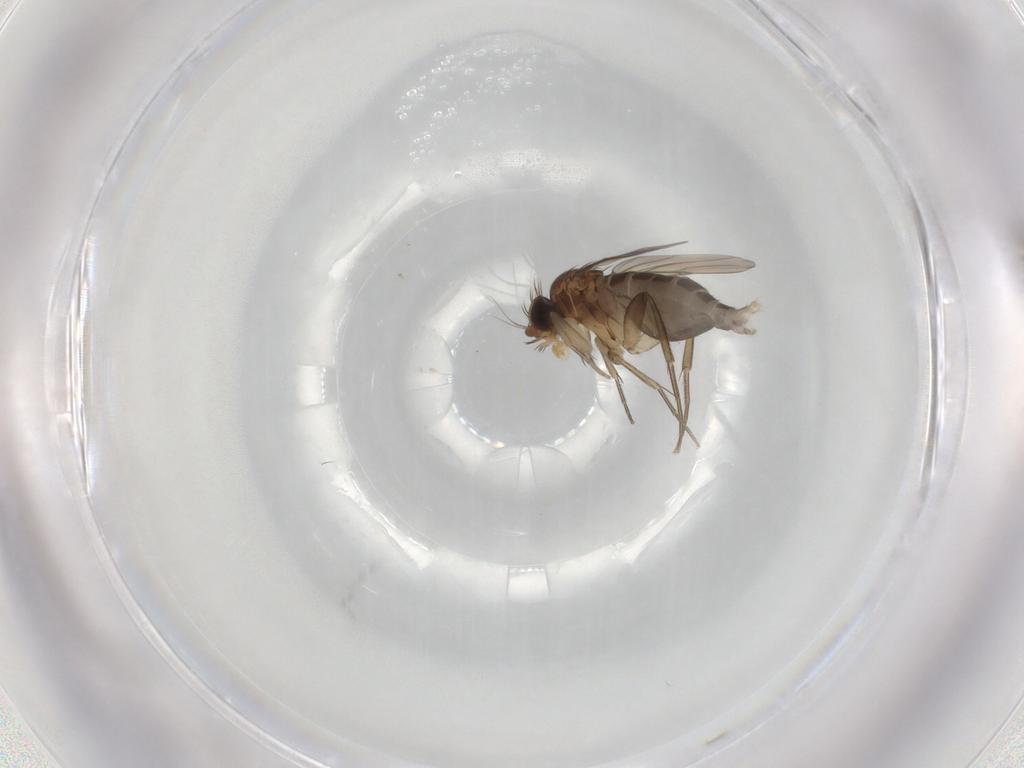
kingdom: Animalia
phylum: Arthropoda
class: Insecta
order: Diptera
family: Phoridae
